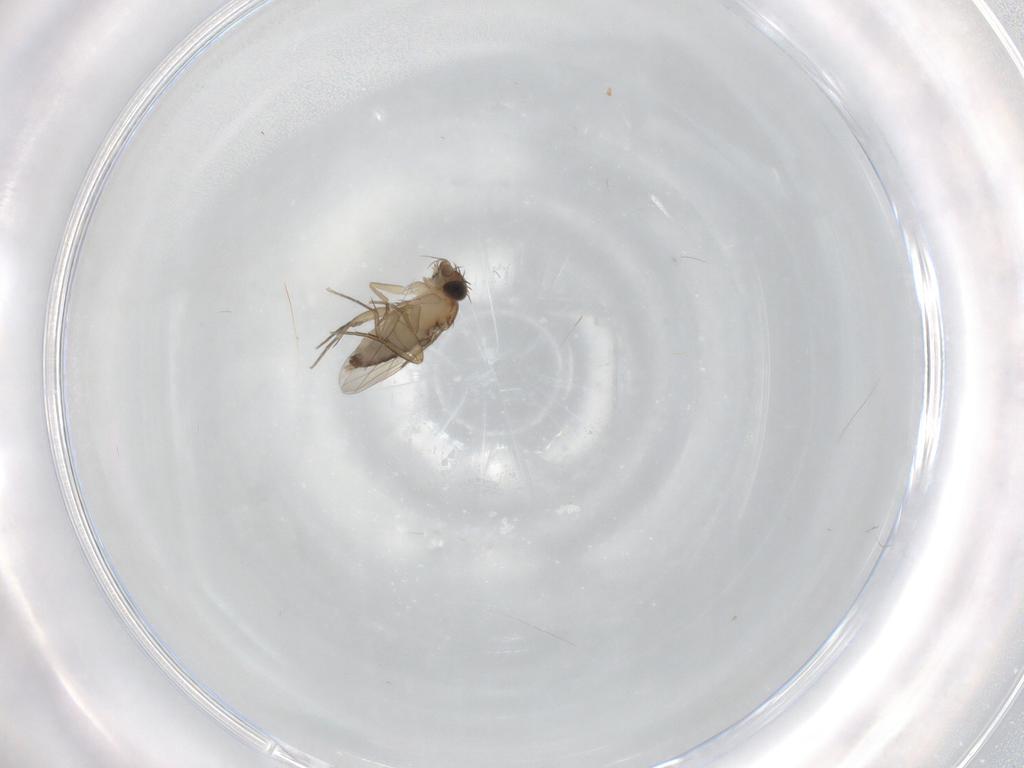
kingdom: Animalia
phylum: Arthropoda
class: Insecta
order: Diptera
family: Phoridae
